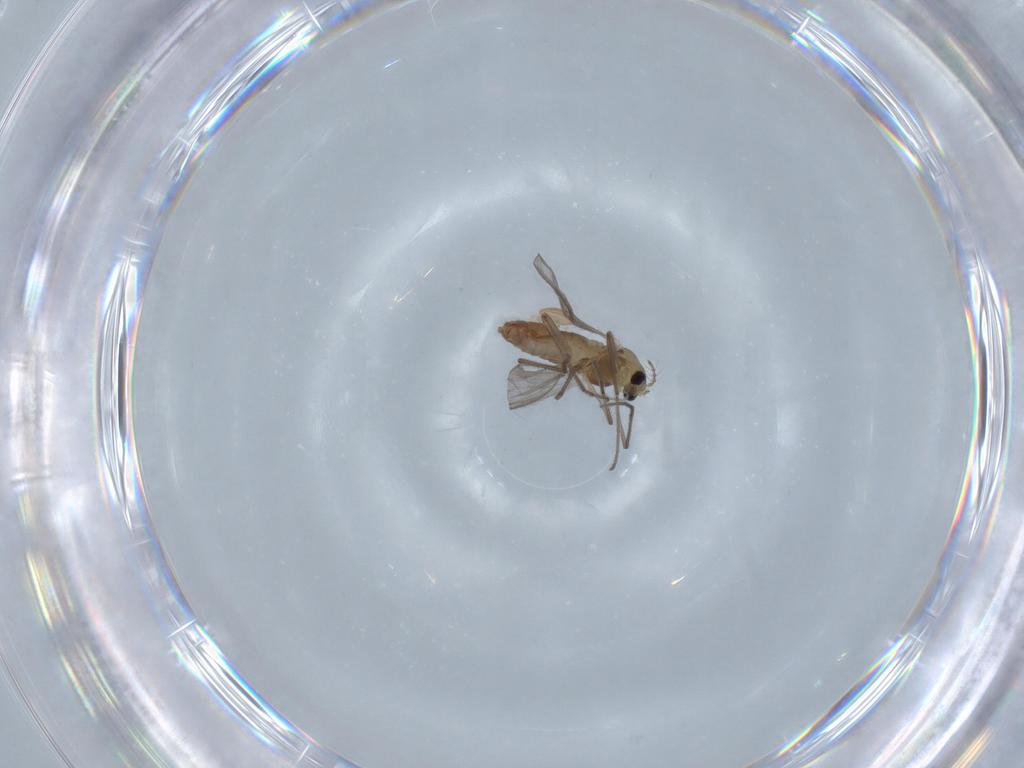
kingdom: Animalia
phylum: Arthropoda
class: Insecta
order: Diptera
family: Chironomidae
